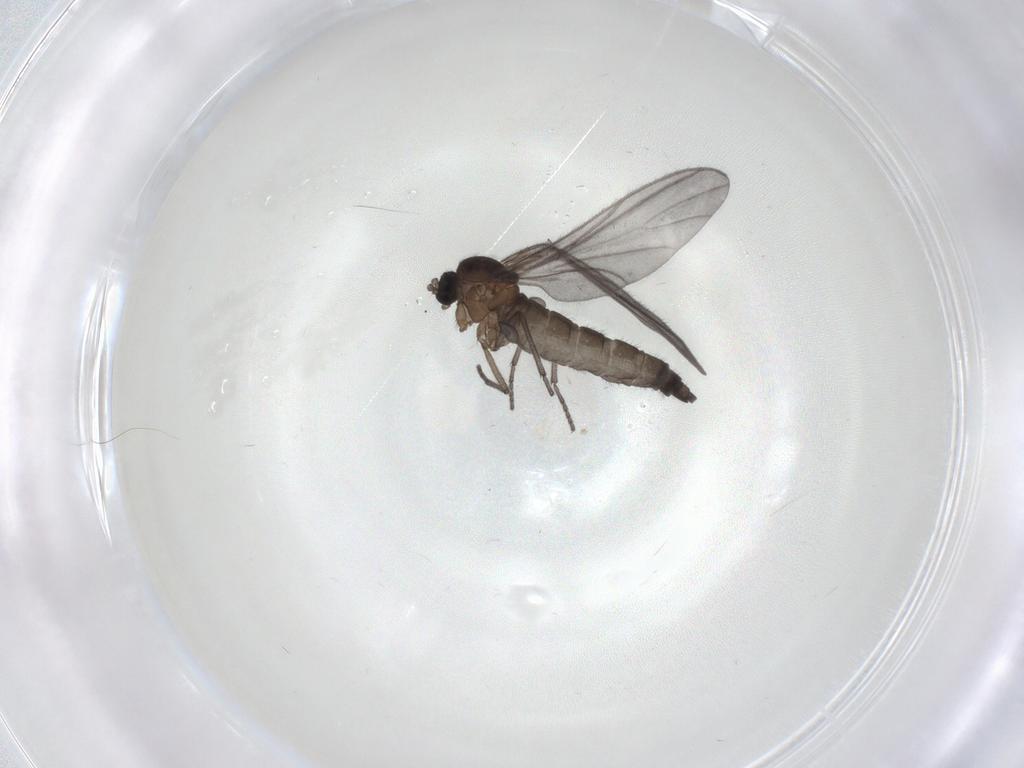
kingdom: Animalia
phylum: Arthropoda
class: Insecta
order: Diptera
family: Sciaridae
